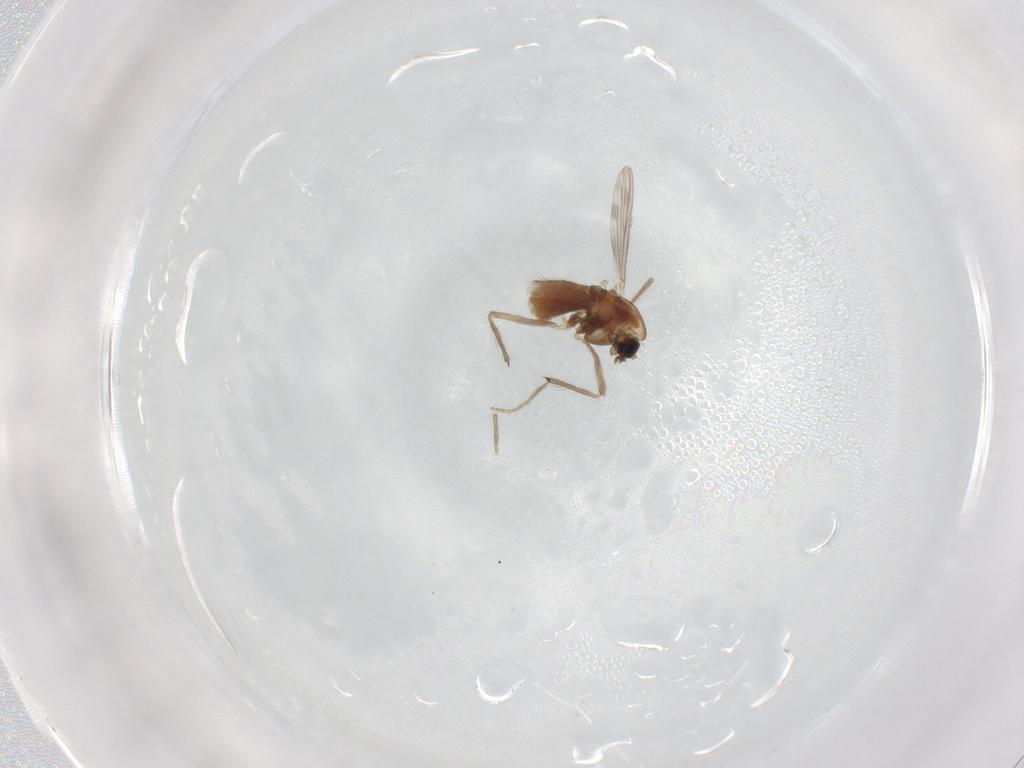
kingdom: Animalia
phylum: Arthropoda
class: Insecta
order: Diptera
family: Chironomidae
